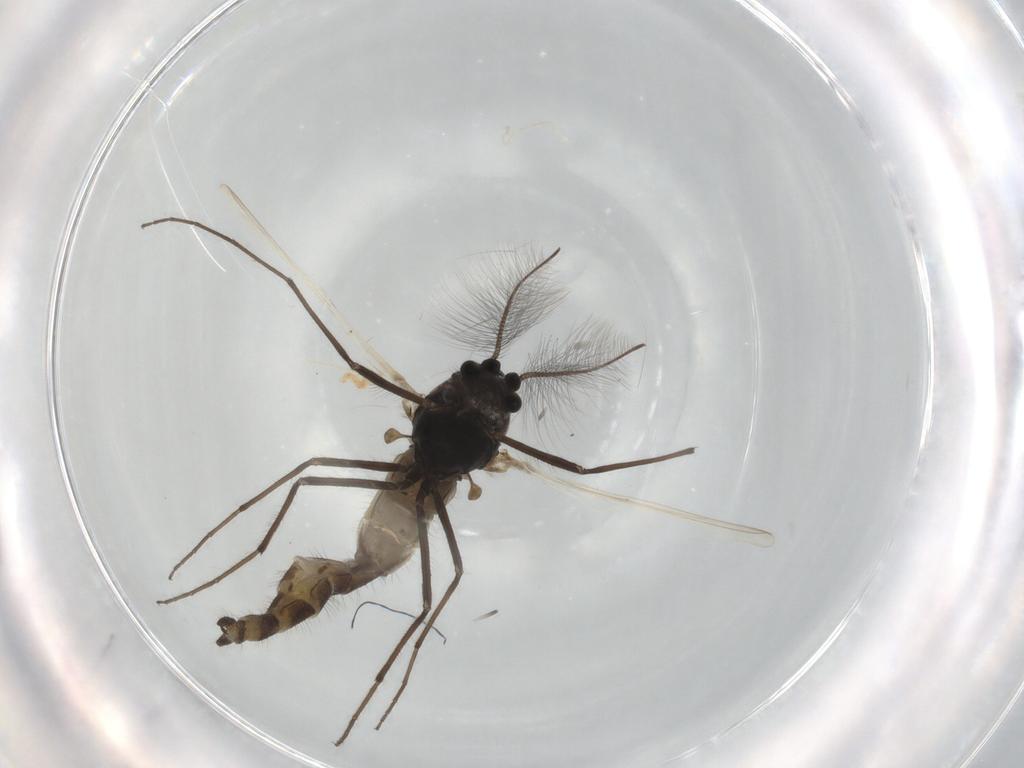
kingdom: Animalia
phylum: Arthropoda
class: Insecta
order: Diptera
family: Chironomidae
